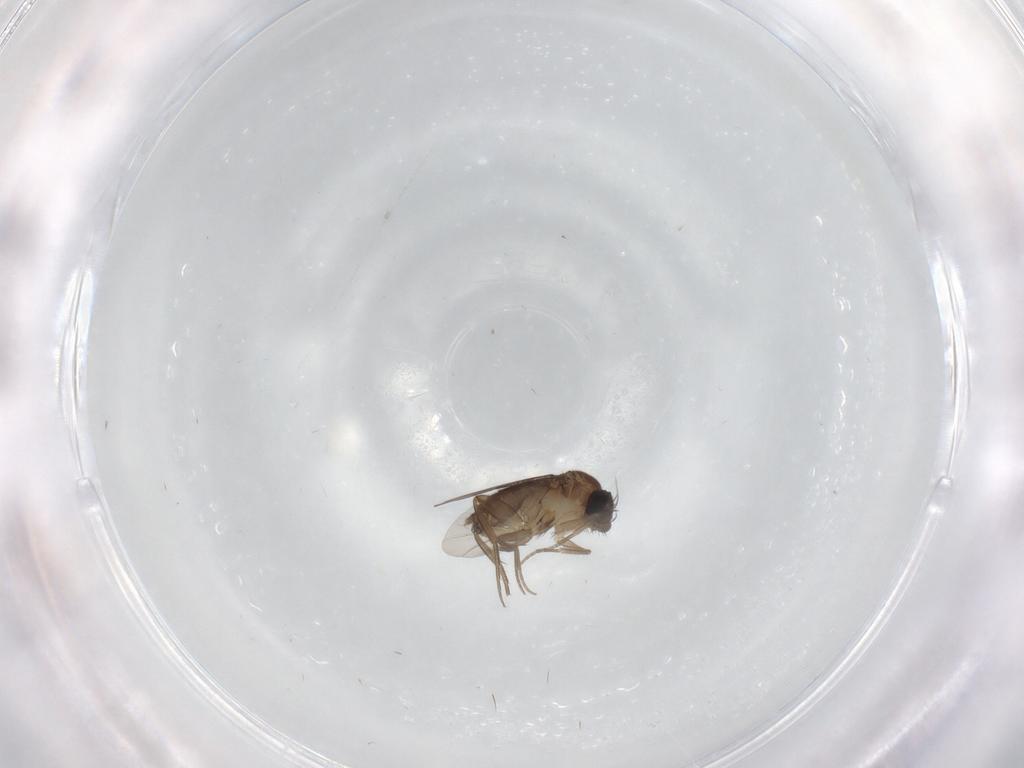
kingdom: Animalia
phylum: Arthropoda
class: Insecta
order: Diptera
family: Phoridae
